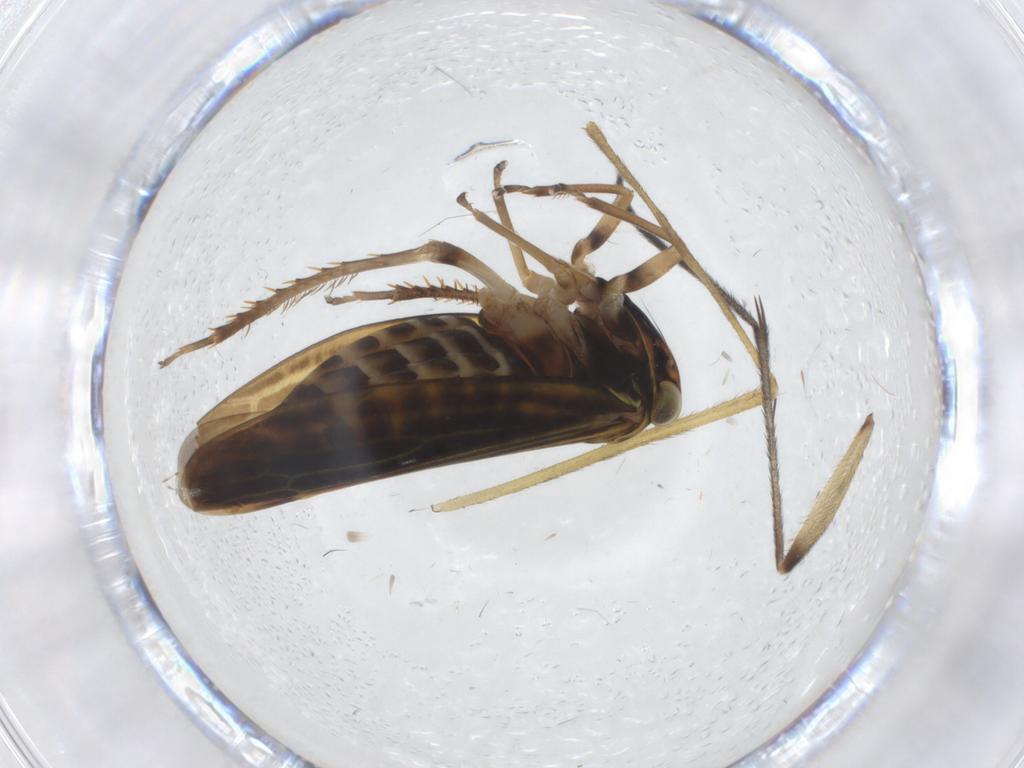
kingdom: Animalia
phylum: Arthropoda
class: Insecta
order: Hemiptera
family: Cicadellidae
